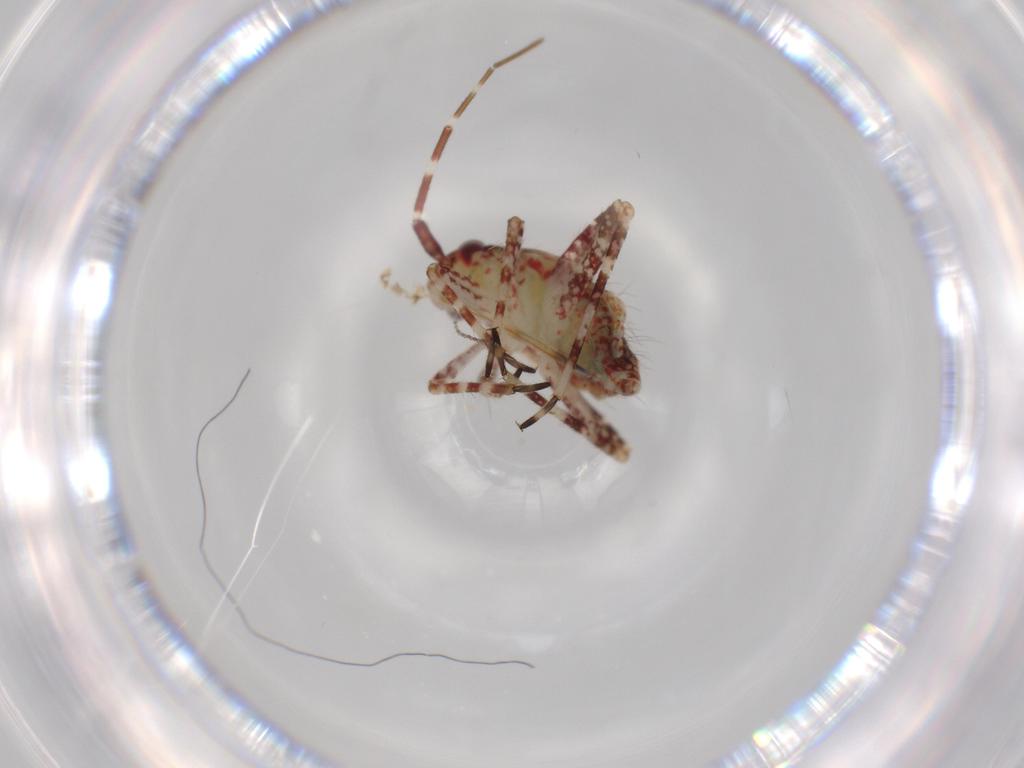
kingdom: Animalia
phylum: Arthropoda
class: Insecta
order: Hemiptera
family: Miridae
